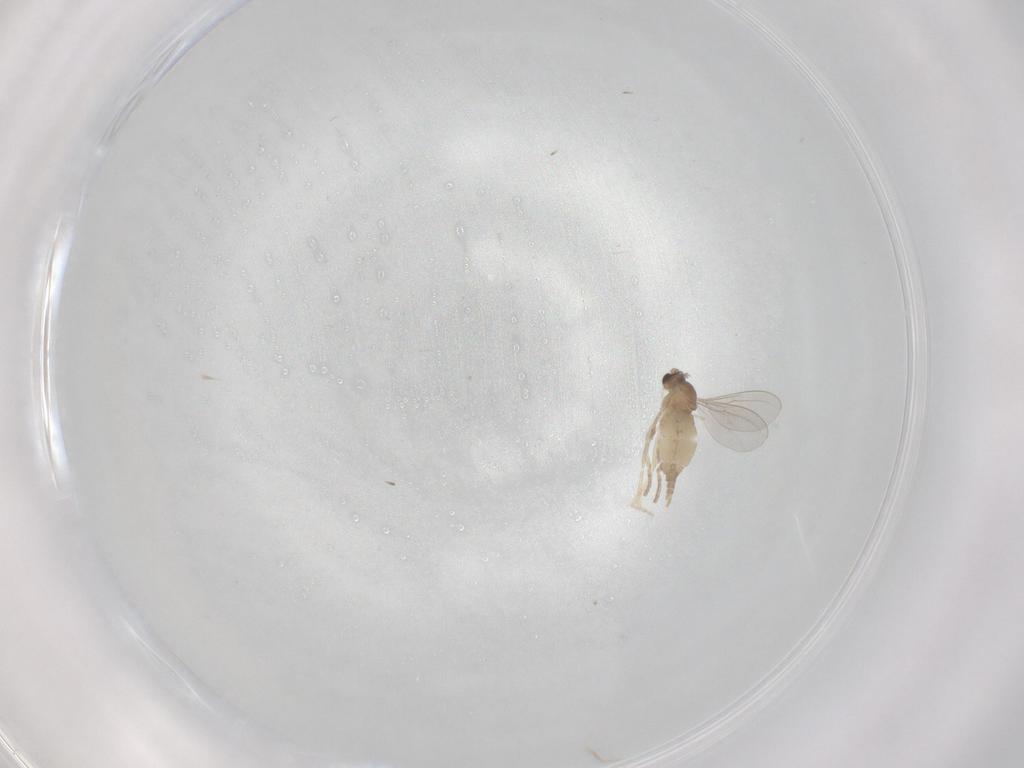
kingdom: Animalia
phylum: Arthropoda
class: Insecta
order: Diptera
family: Cecidomyiidae
